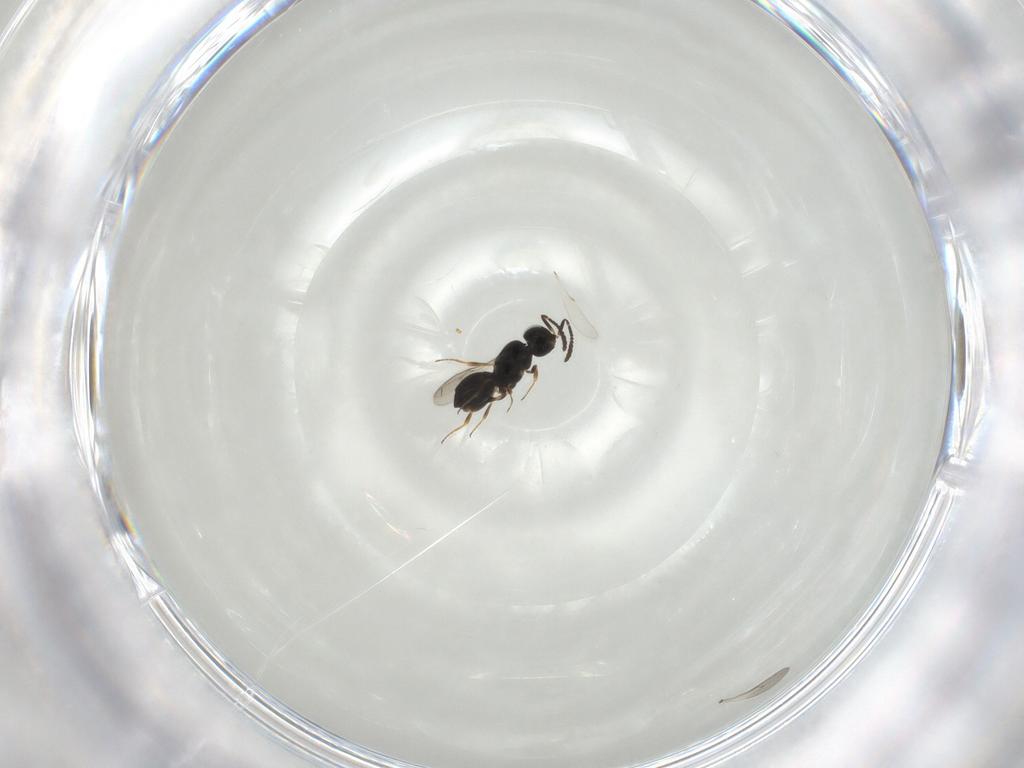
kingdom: Animalia
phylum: Arthropoda
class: Insecta
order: Hymenoptera
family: Scelionidae
